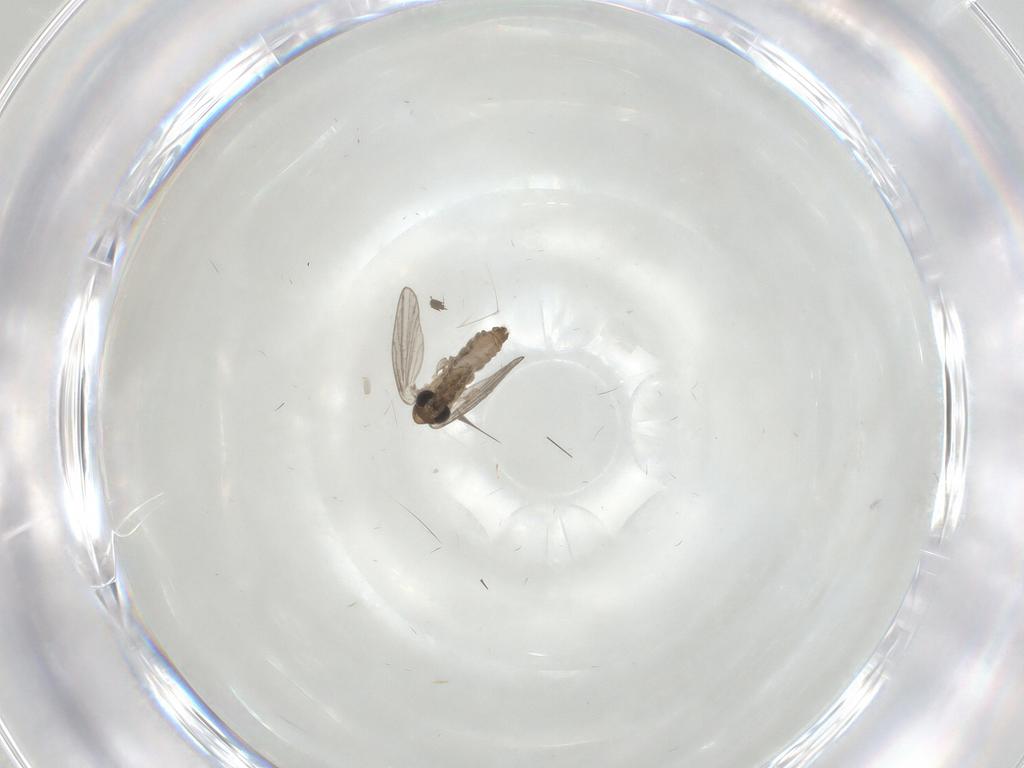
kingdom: Animalia
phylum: Arthropoda
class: Insecta
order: Diptera
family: Psychodidae
